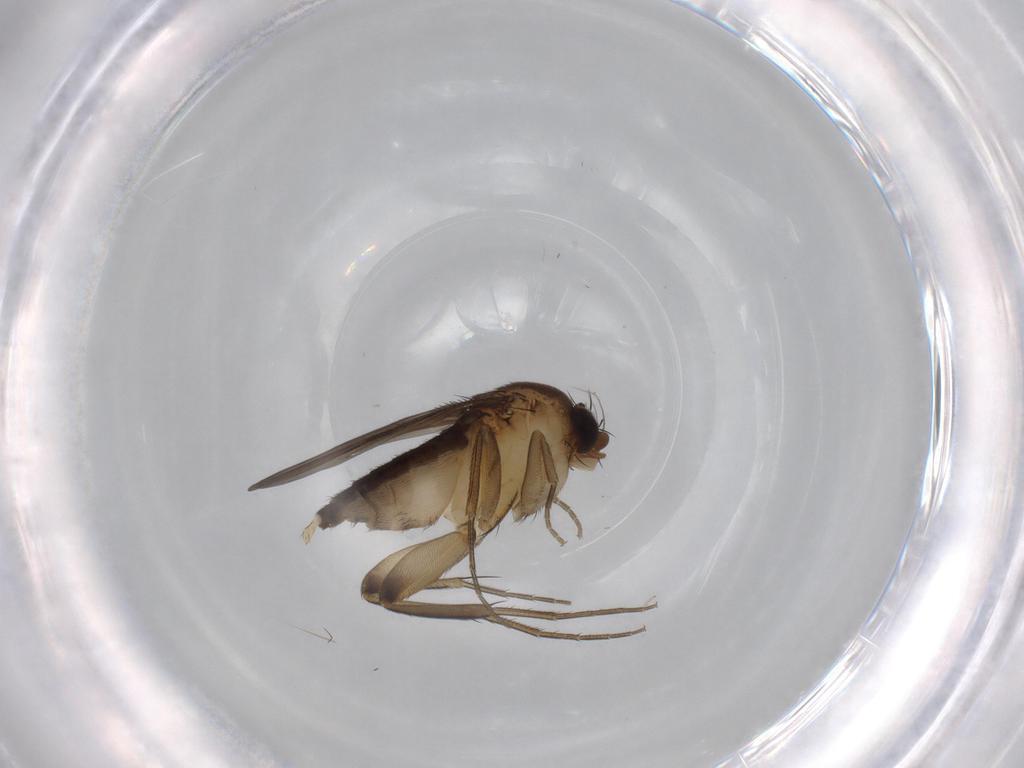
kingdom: Animalia
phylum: Arthropoda
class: Insecta
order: Diptera
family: Phoridae
